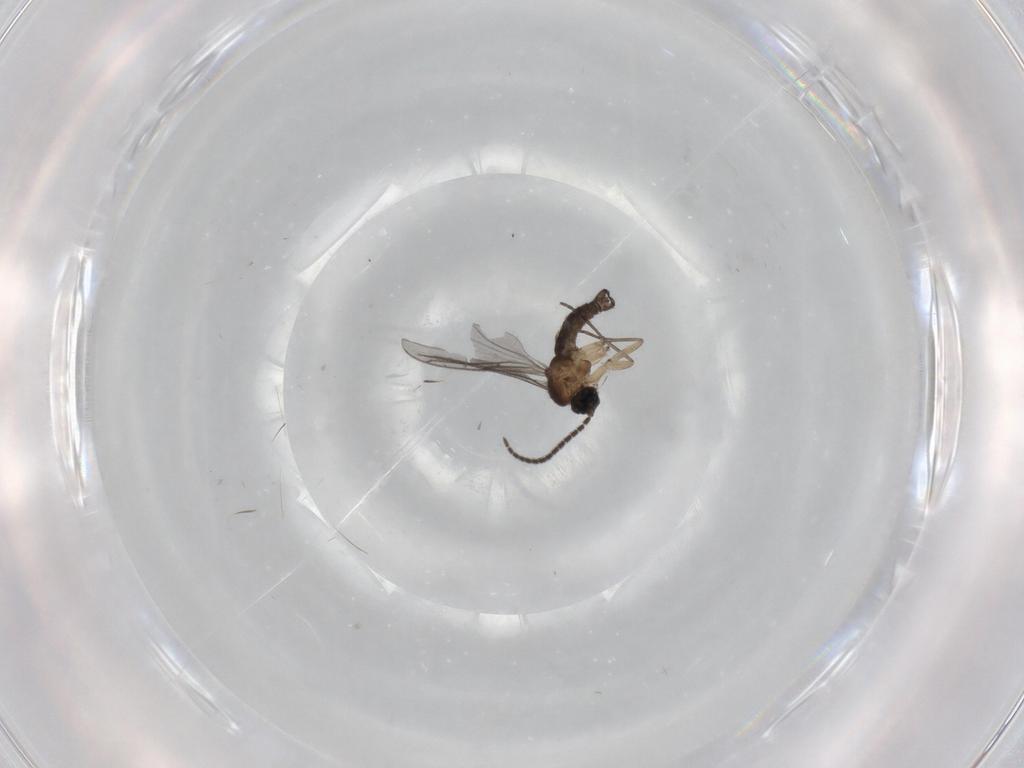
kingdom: Animalia
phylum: Arthropoda
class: Insecta
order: Diptera
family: Sciaridae
